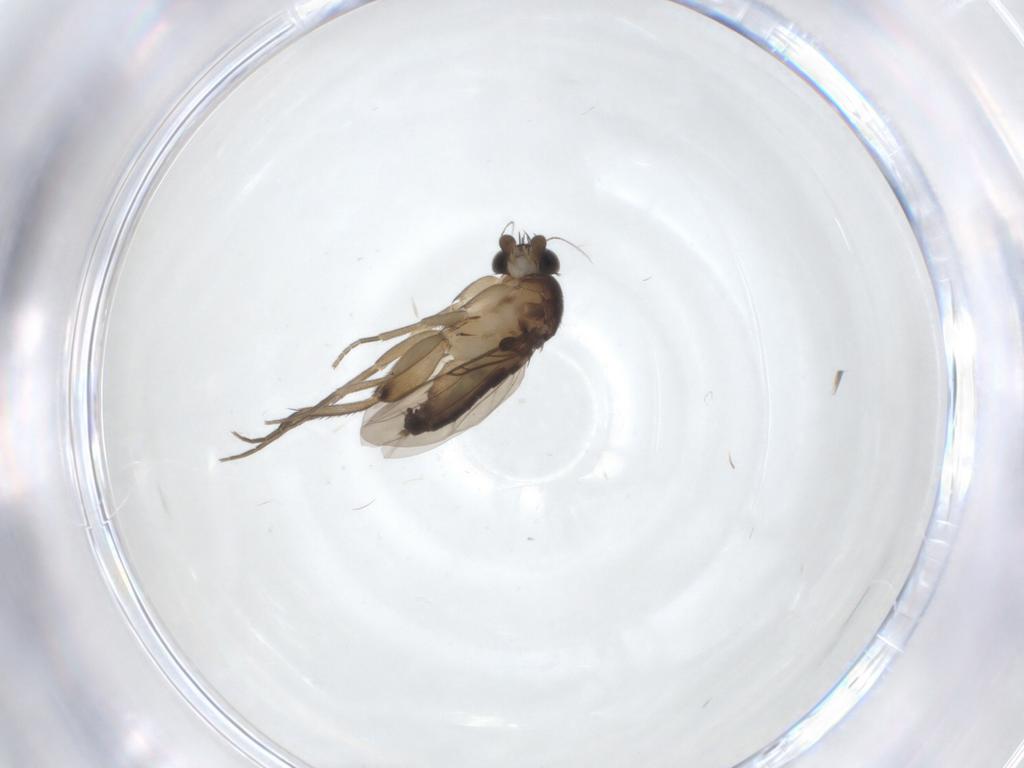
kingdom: Animalia
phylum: Arthropoda
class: Insecta
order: Diptera
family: Phoridae
